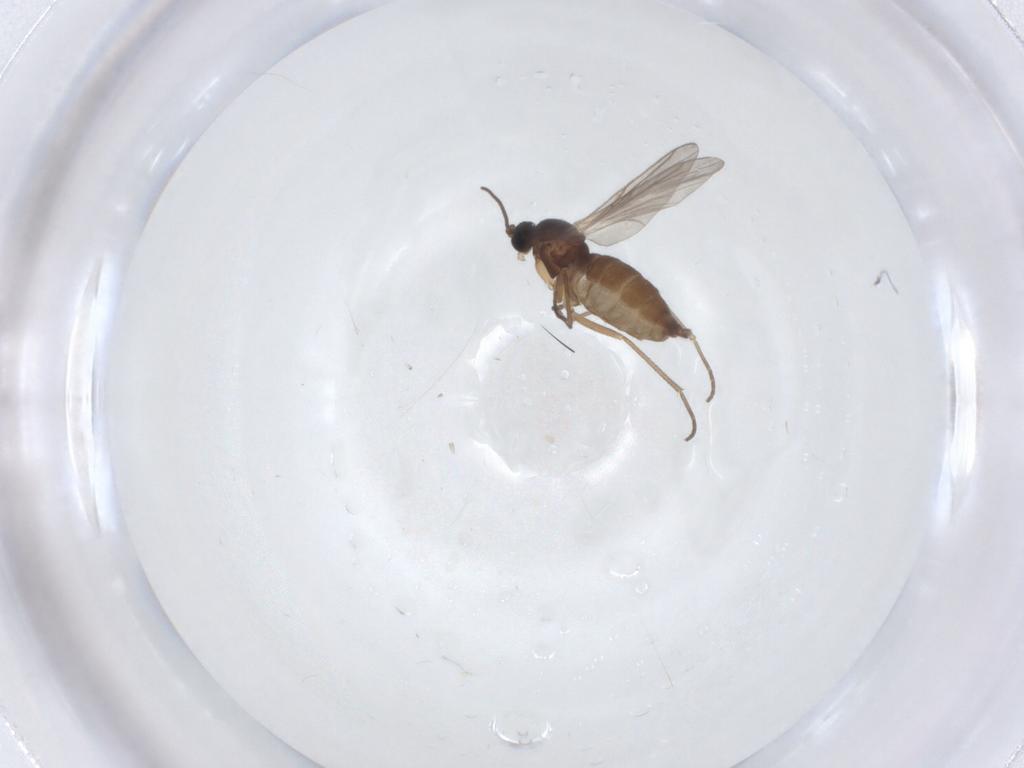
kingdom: Animalia
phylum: Arthropoda
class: Insecta
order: Diptera
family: Sciaridae
